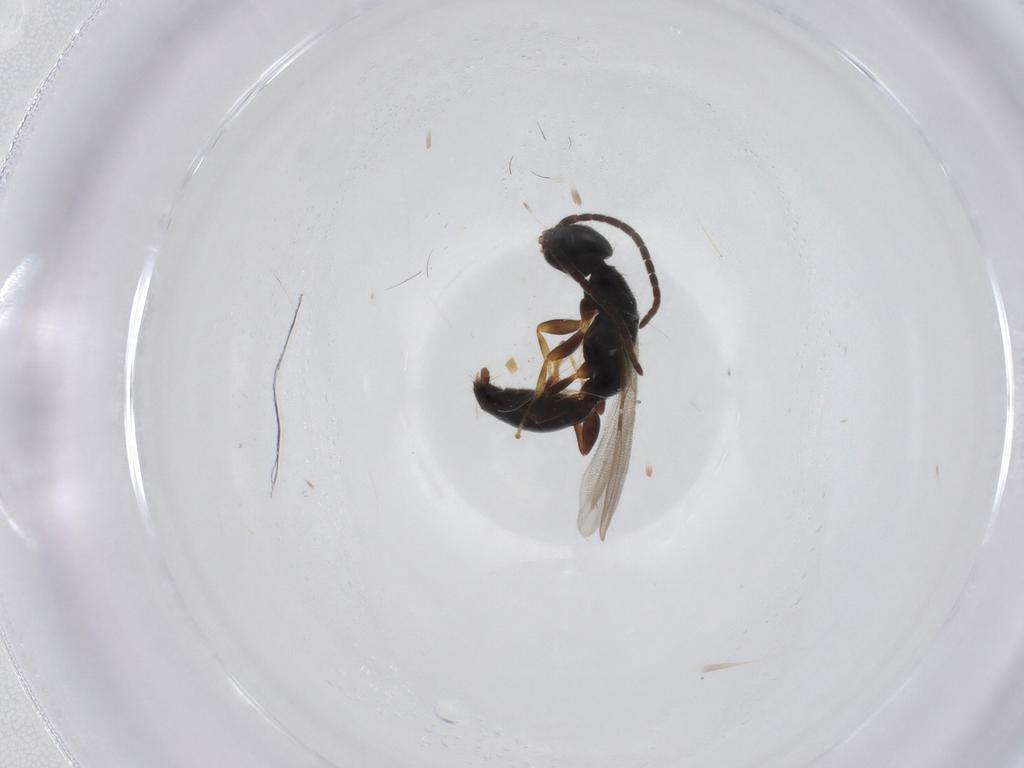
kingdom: Animalia
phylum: Arthropoda
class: Insecta
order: Hymenoptera
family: Bethylidae
